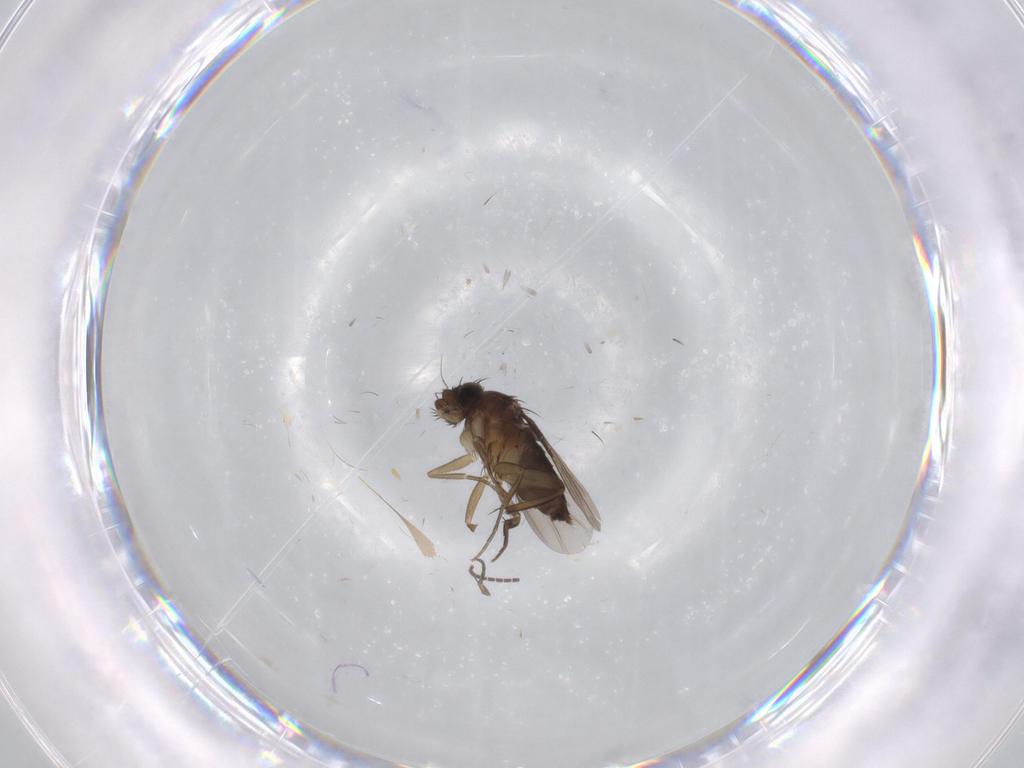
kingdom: Animalia
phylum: Arthropoda
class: Insecta
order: Diptera
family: Phoridae
